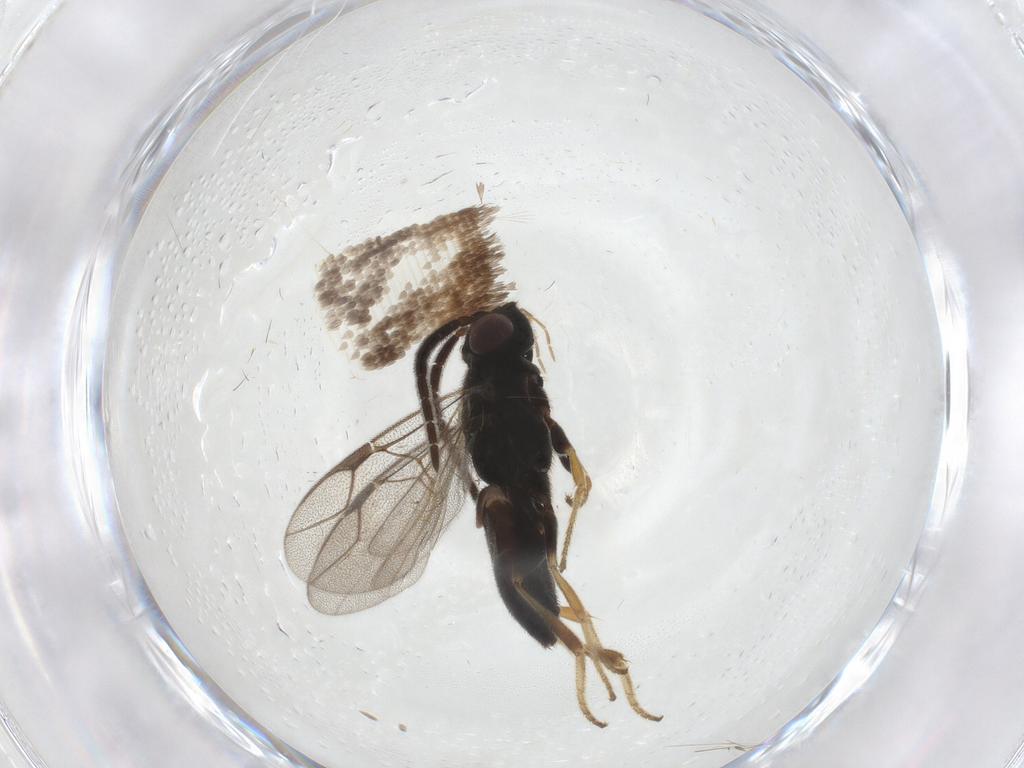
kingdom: Animalia
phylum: Arthropoda
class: Insecta
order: Hymenoptera
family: Dryinidae
